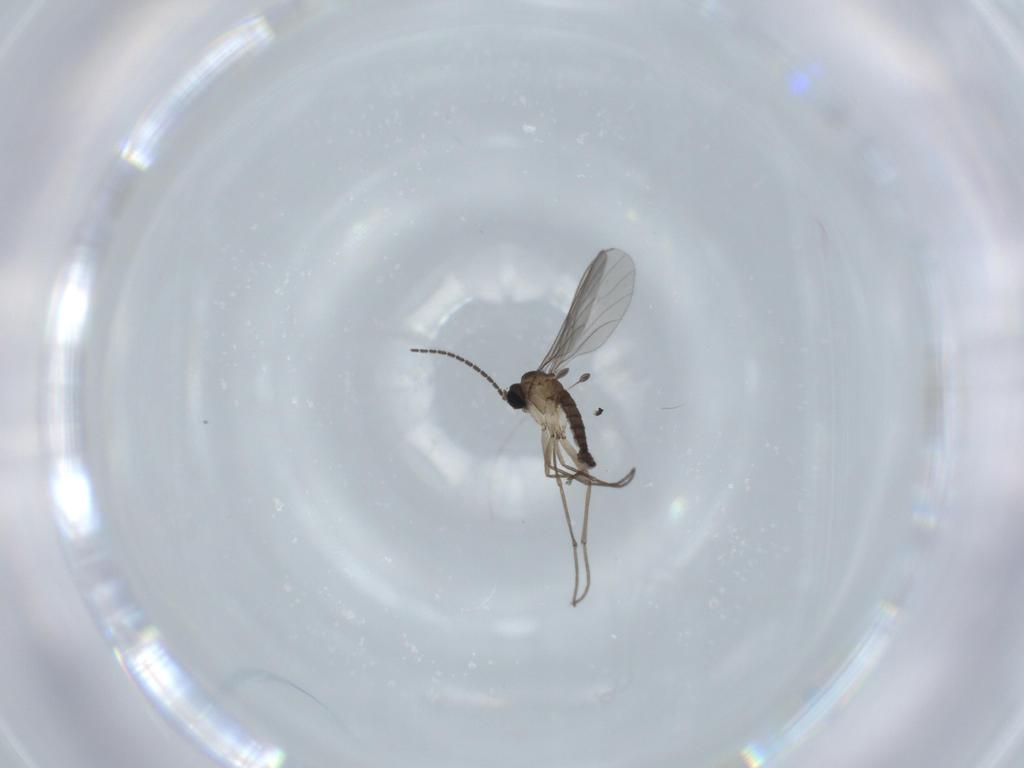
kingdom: Animalia
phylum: Arthropoda
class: Insecta
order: Diptera
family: Sciaridae
